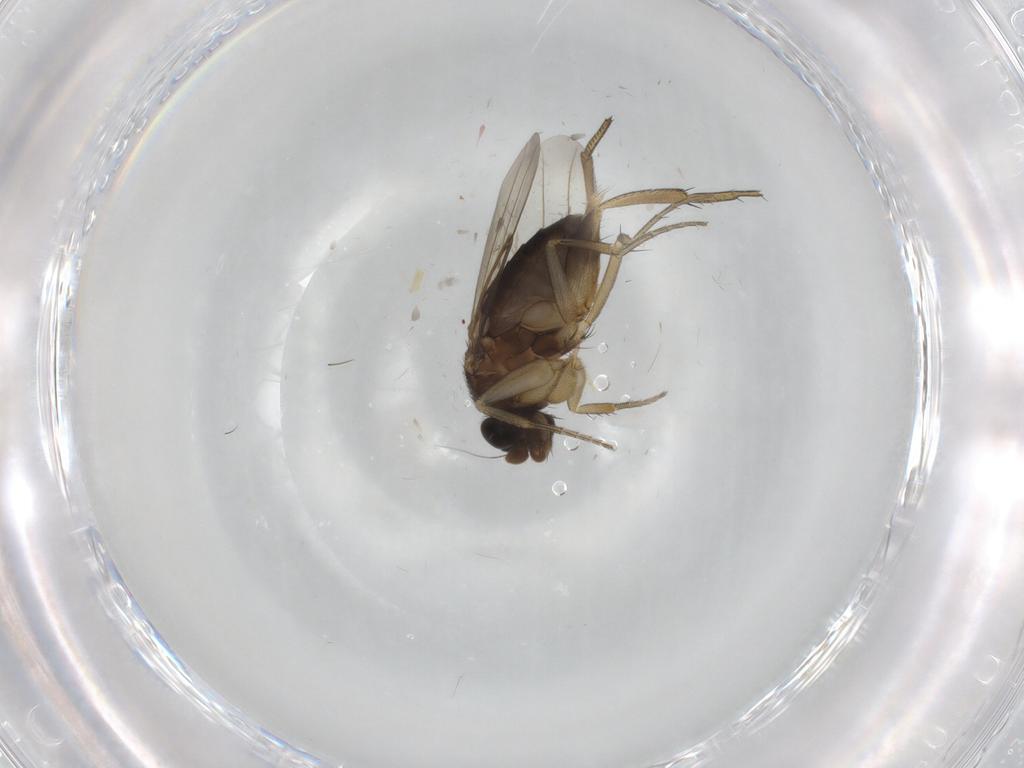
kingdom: Animalia
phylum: Arthropoda
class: Insecta
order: Diptera
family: Phoridae
